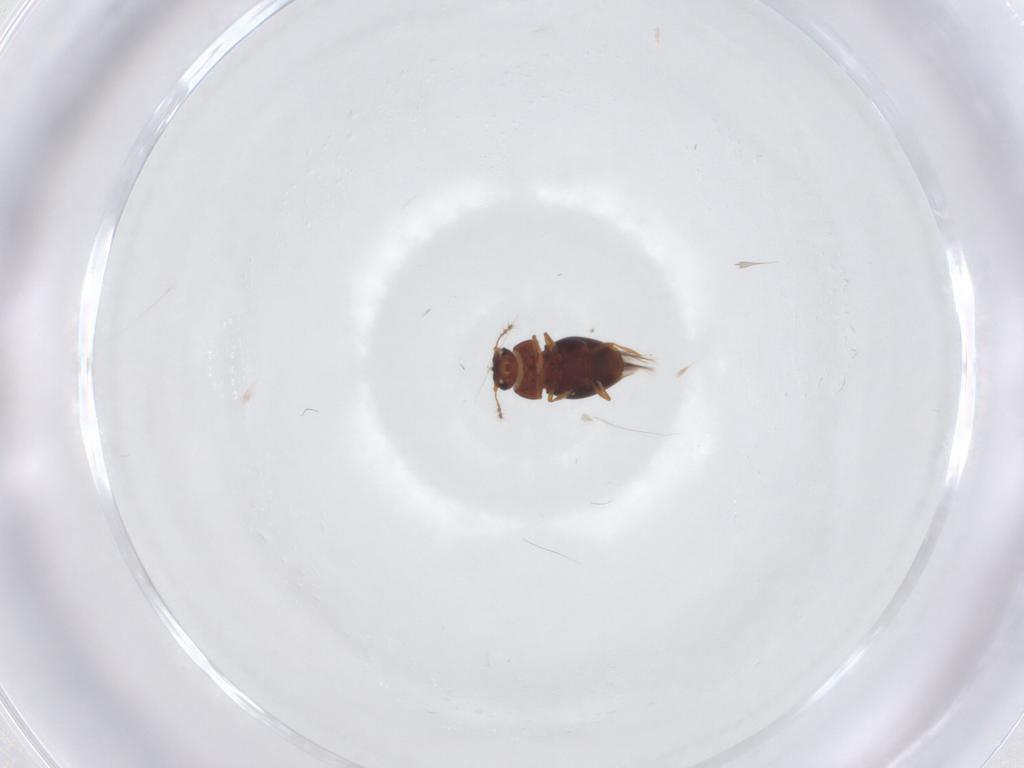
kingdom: Animalia
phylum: Arthropoda
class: Insecta
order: Coleoptera
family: Ptiliidae
